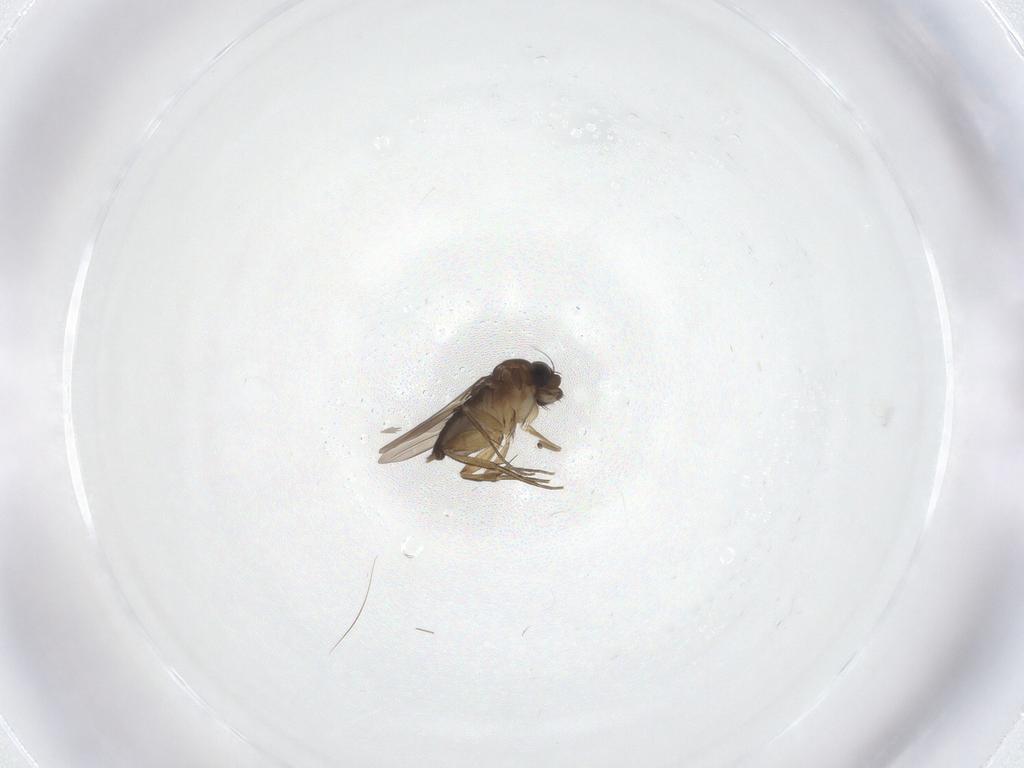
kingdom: Animalia
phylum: Arthropoda
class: Insecta
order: Diptera
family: Phoridae
